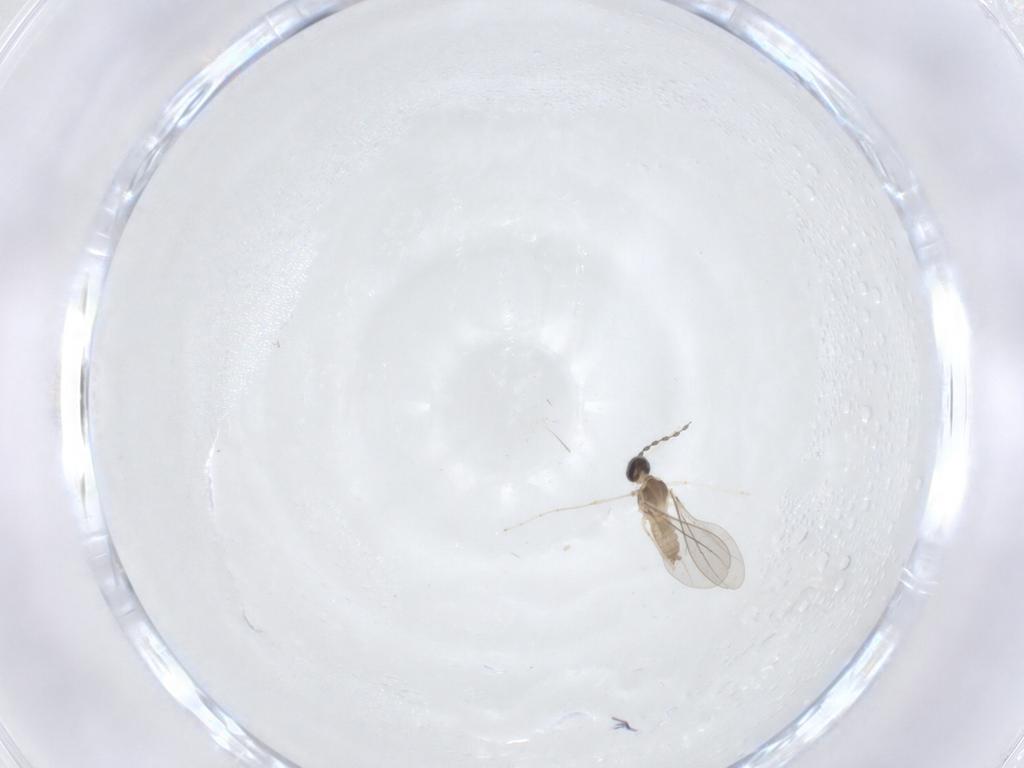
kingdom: Animalia
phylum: Arthropoda
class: Insecta
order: Diptera
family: Cecidomyiidae
